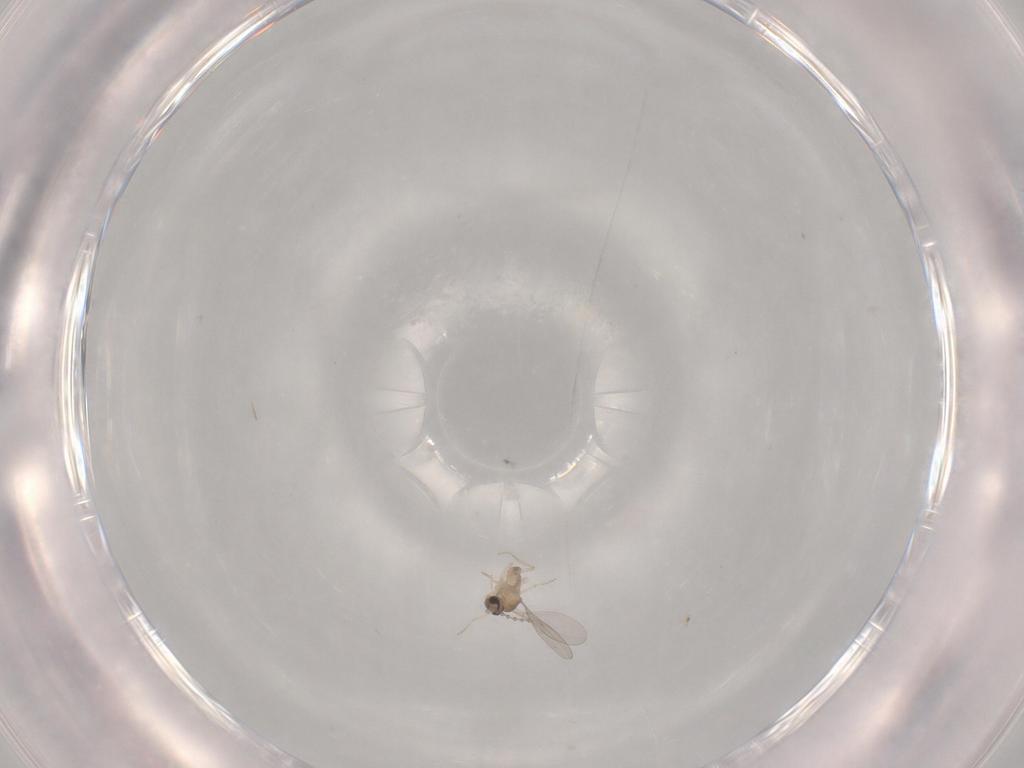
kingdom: Animalia
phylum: Arthropoda
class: Insecta
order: Diptera
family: Cecidomyiidae
